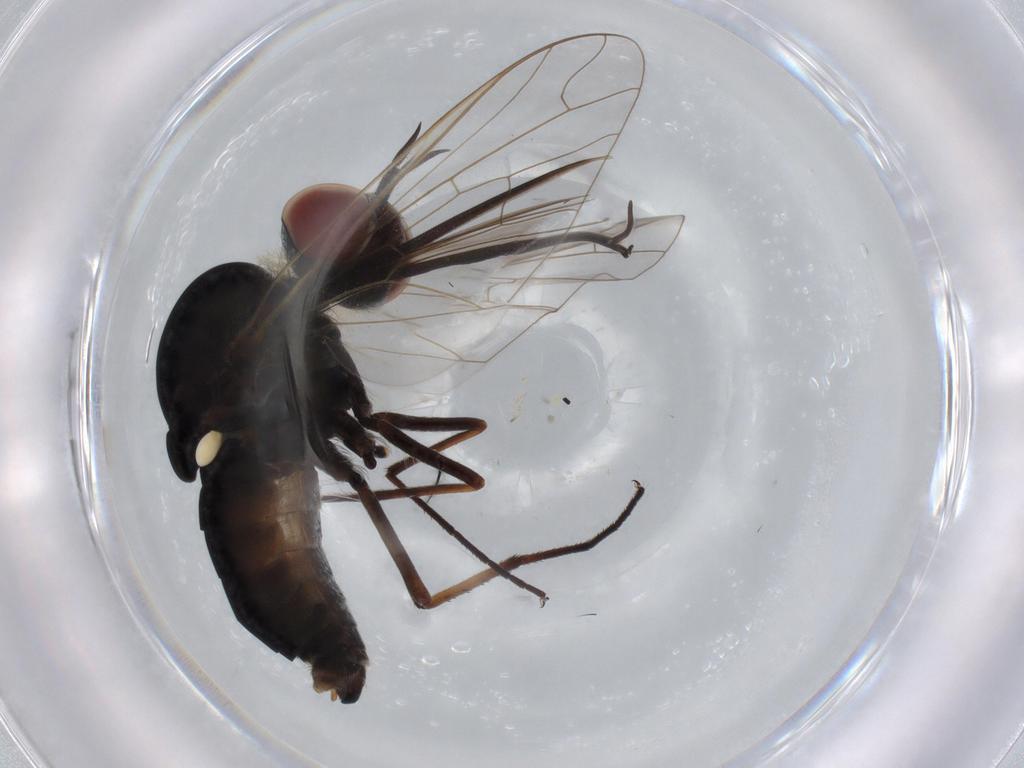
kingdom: Animalia
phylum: Arthropoda
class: Insecta
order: Diptera
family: Bombyliidae
